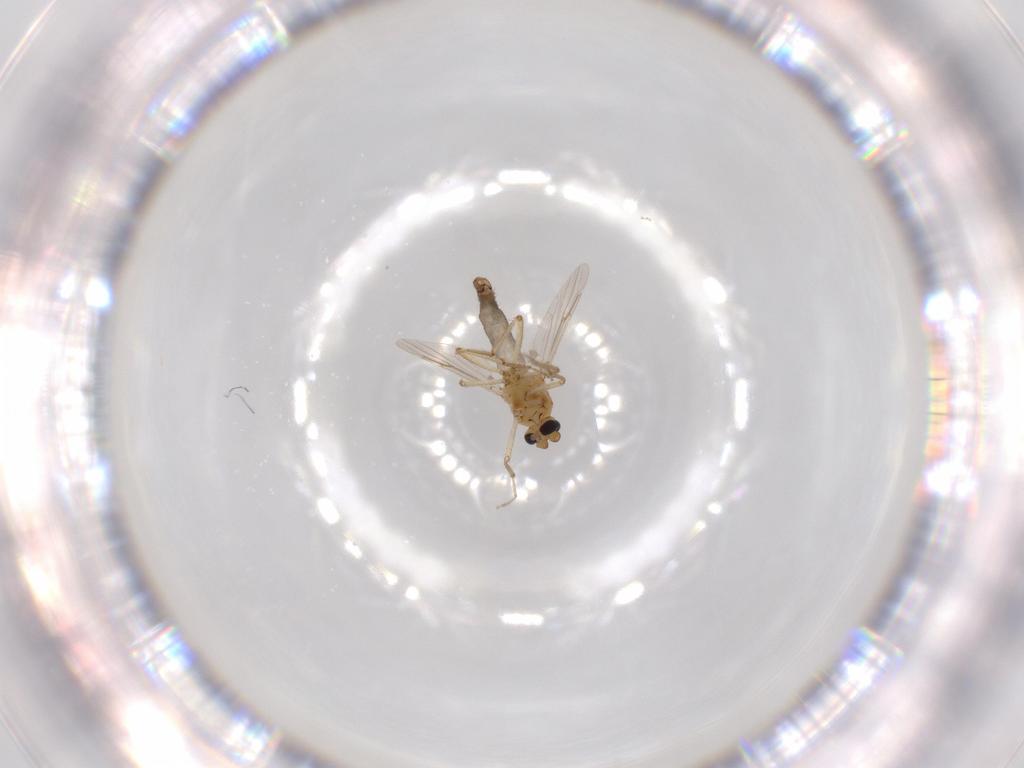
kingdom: Animalia
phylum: Arthropoda
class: Insecta
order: Diptera
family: Ceratopogonidae
